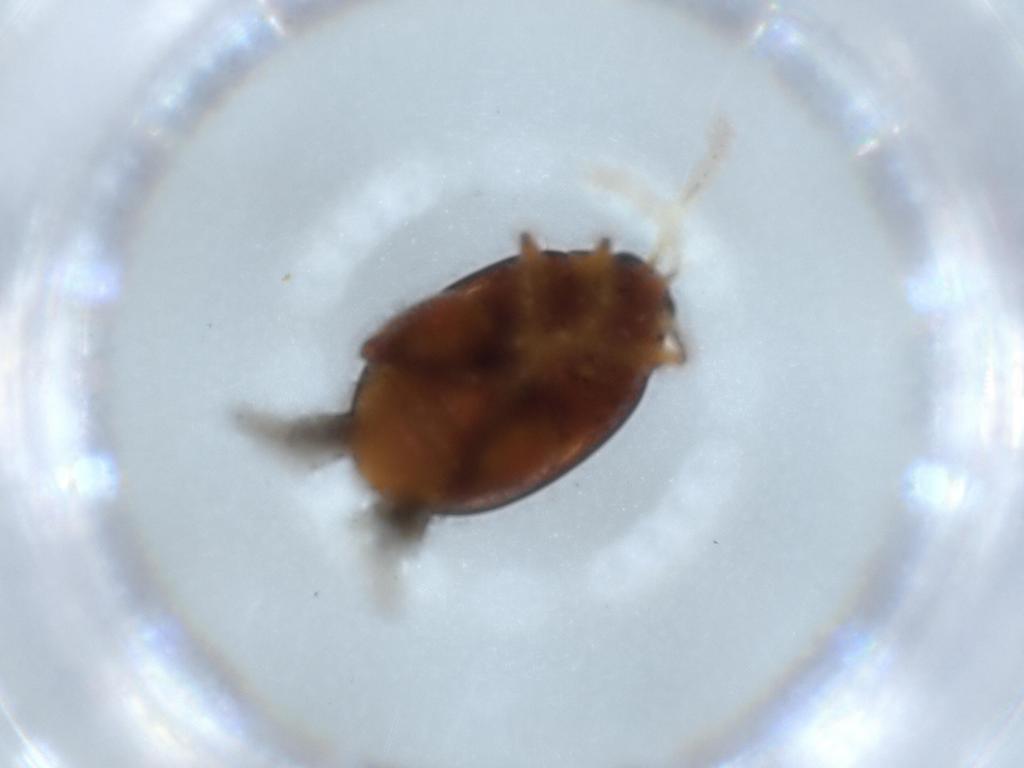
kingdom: Animalia
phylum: Arthropoda
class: Insecta
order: Coleoptera
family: Chrysomelidae
